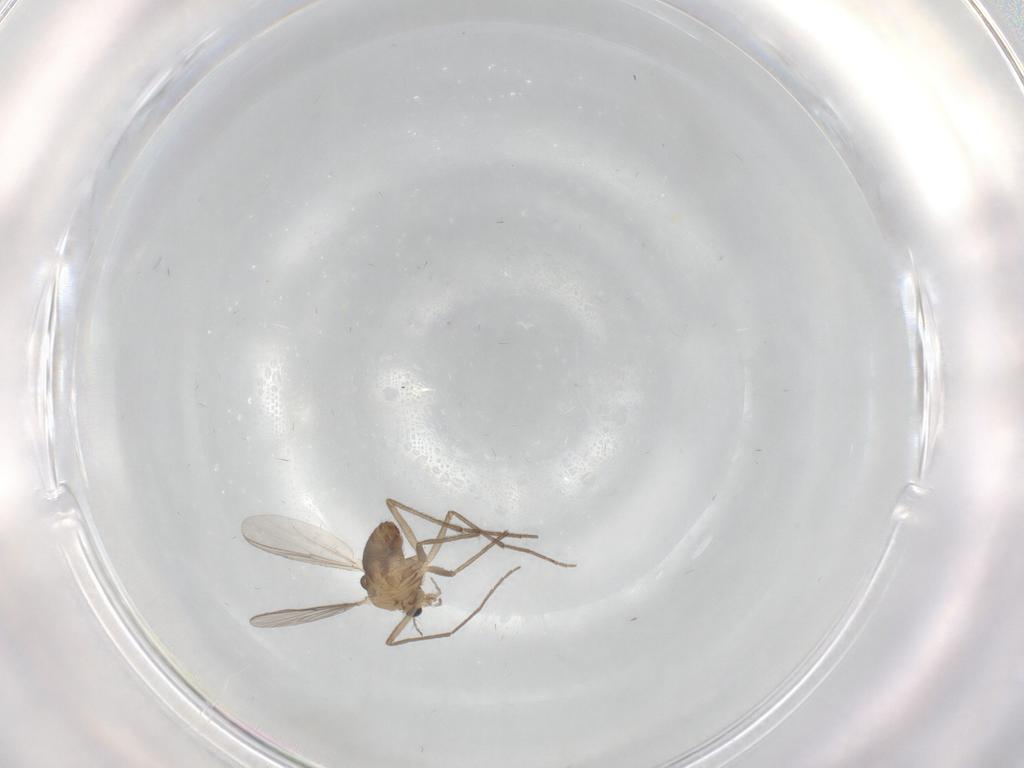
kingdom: Animalia
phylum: Arthropoda
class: Insecta
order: Diptera
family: Chironomidae
